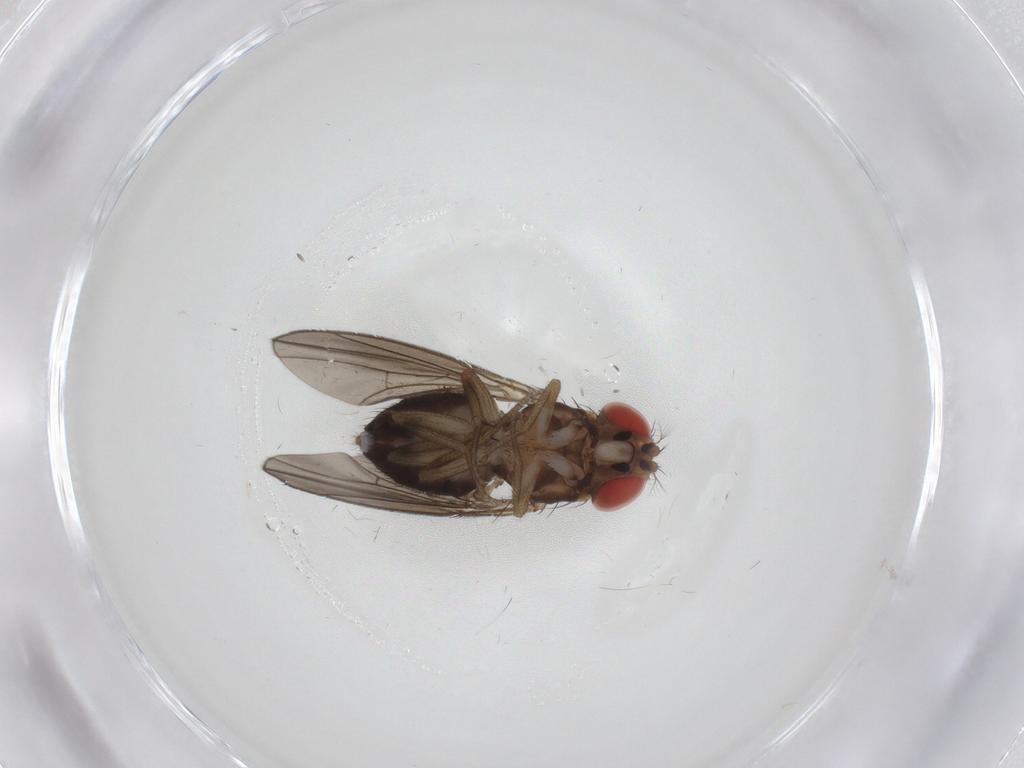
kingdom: Animalia
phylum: Arthropoda
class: Insecta
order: Diptera
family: Drosophilidae
